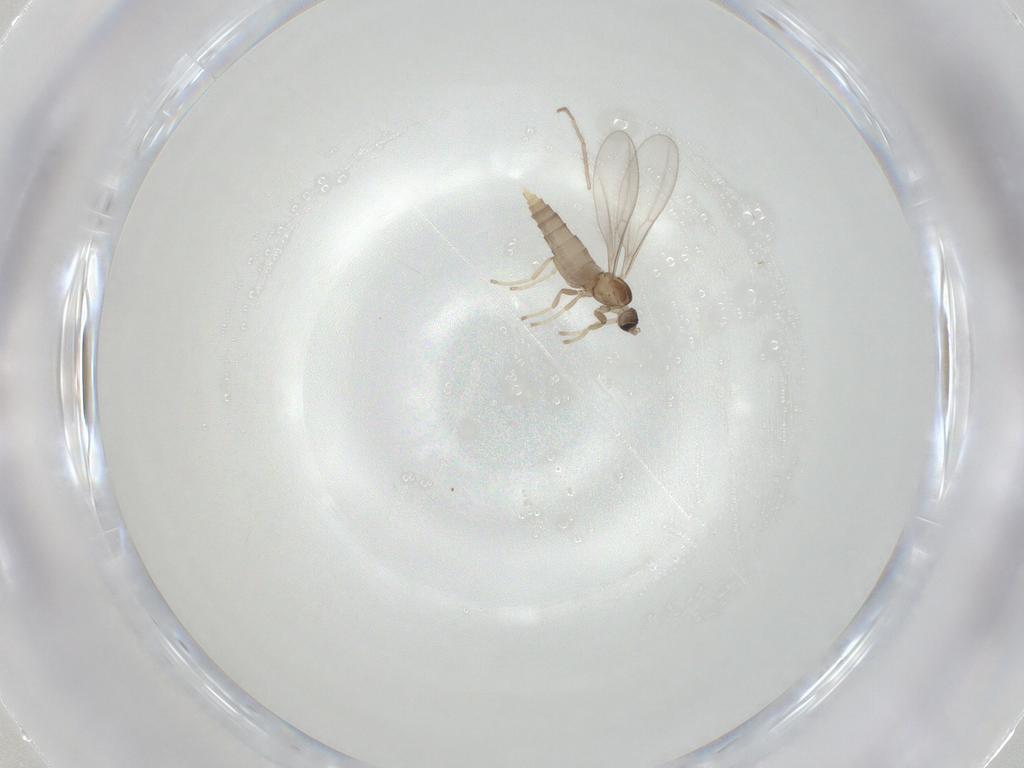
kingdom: Animalia
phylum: Arthropoda
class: Insecta
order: Diptera
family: Chironomidae
